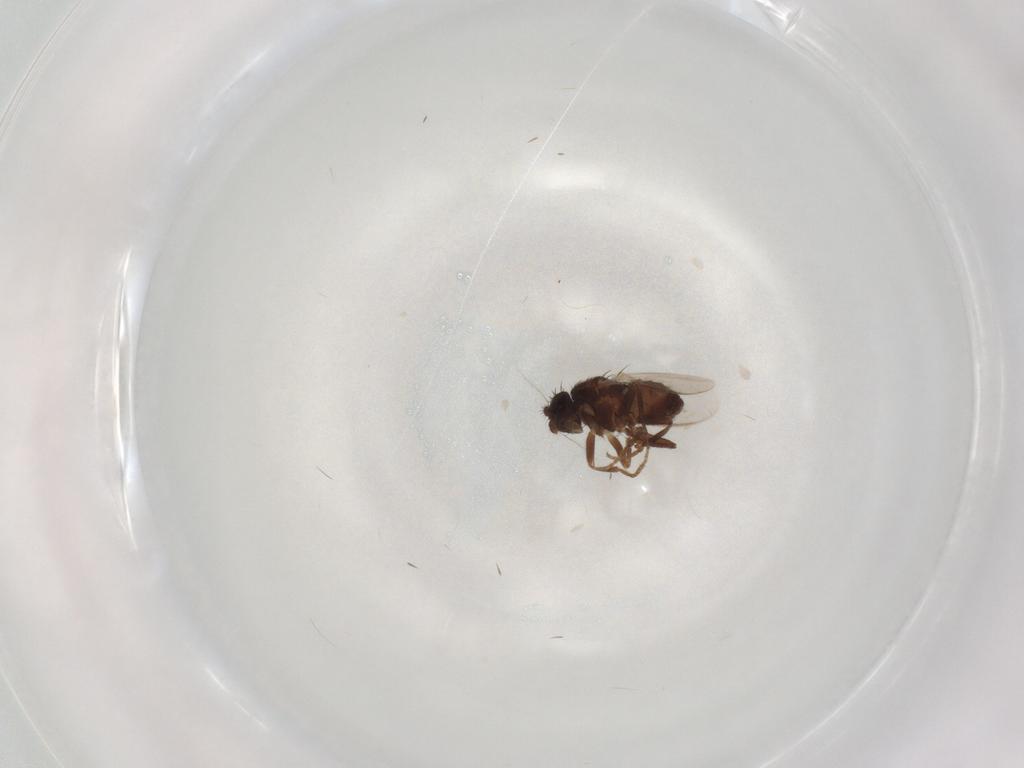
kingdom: Animalia
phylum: Arthropoda
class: Insecta
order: Diptera
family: Sphaeroceridae
